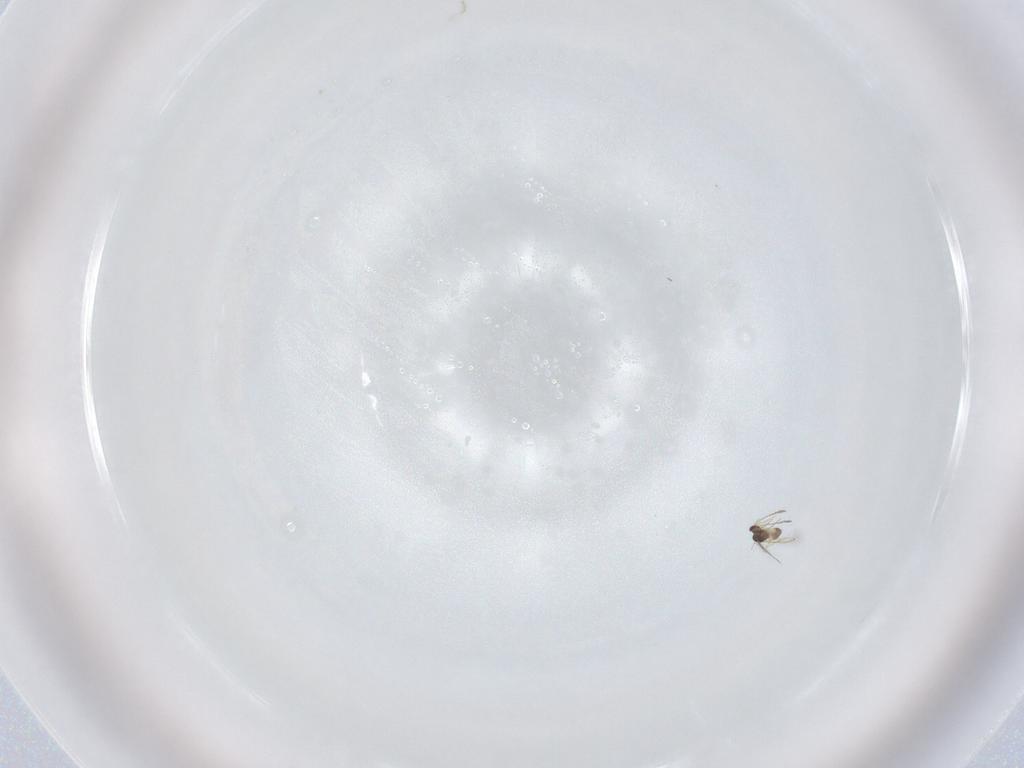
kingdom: Animalia
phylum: Arthropoda
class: Insecta
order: Hymenoptera
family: Mymaridae
